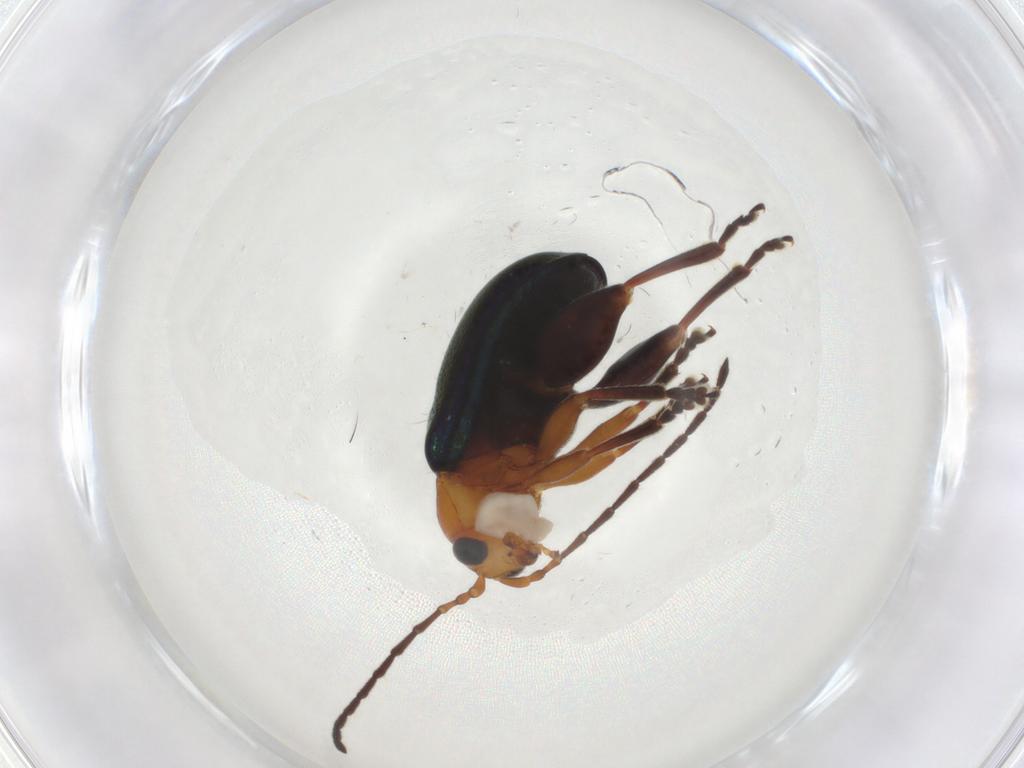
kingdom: Animalia
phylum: Arthropoda
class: Insecta
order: Coleoptera
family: Chrysomelidae
